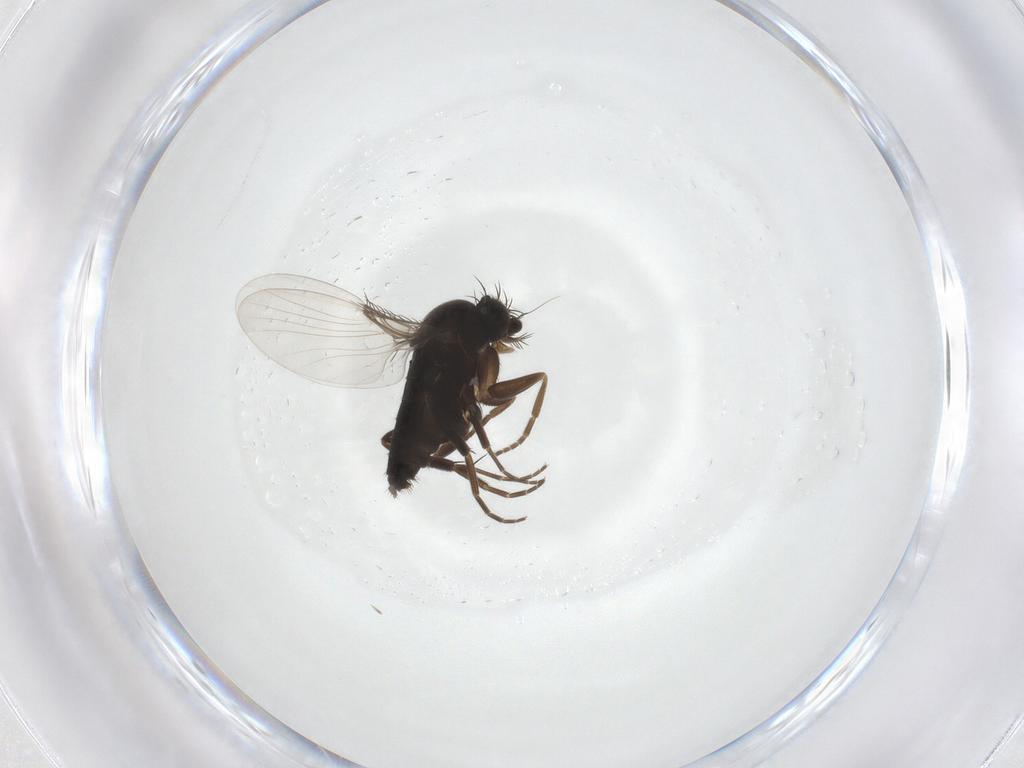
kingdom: Animalia
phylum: Arthropoda
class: Insecta
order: Diptera
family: Phoridae
